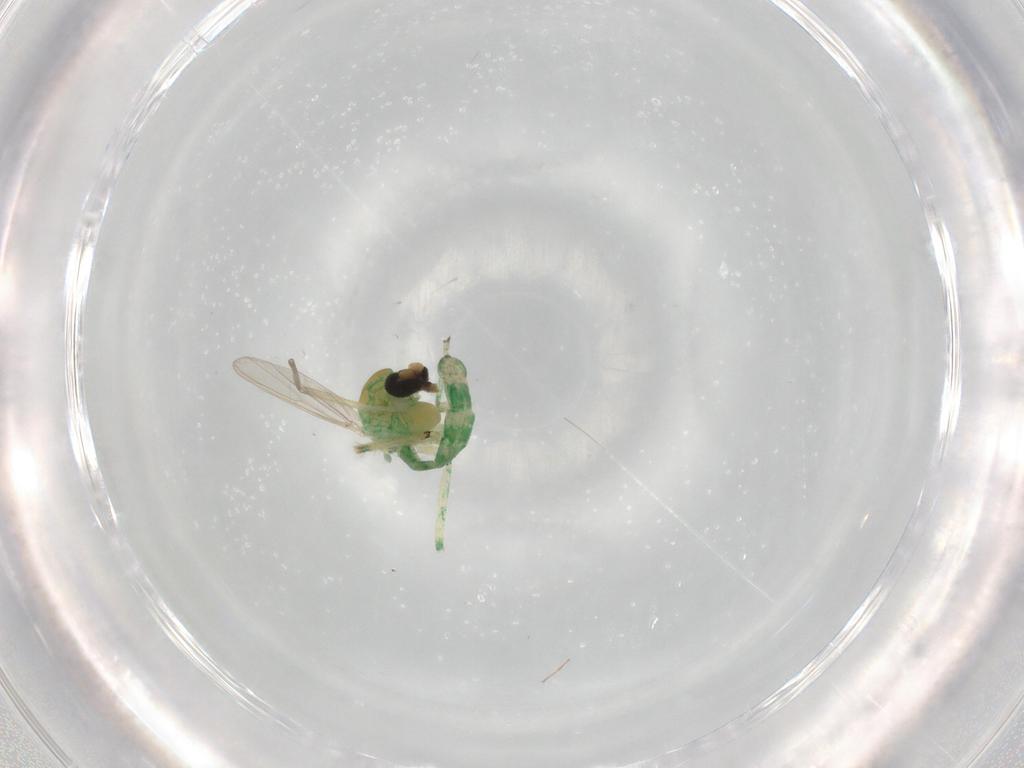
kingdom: Animalia
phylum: Arthropoda
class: Insecta
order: Diptera
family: Chironomidae
